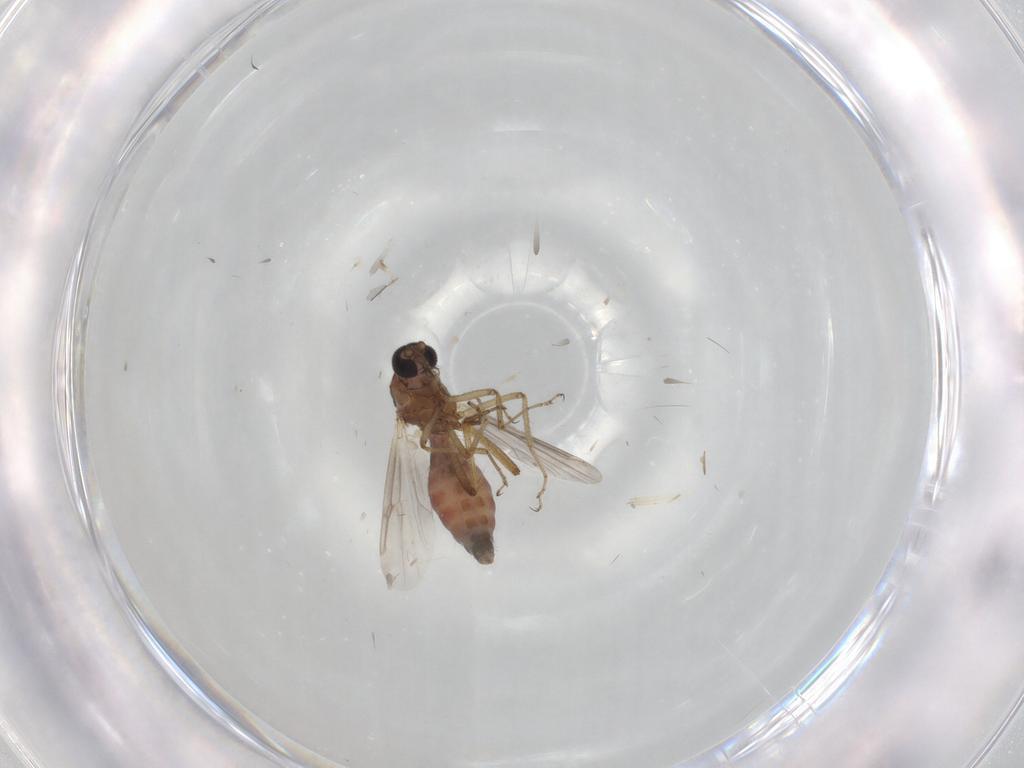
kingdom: Animalia
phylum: Arthropoda
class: Insecta
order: Diptera
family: Ceratopogonidae
